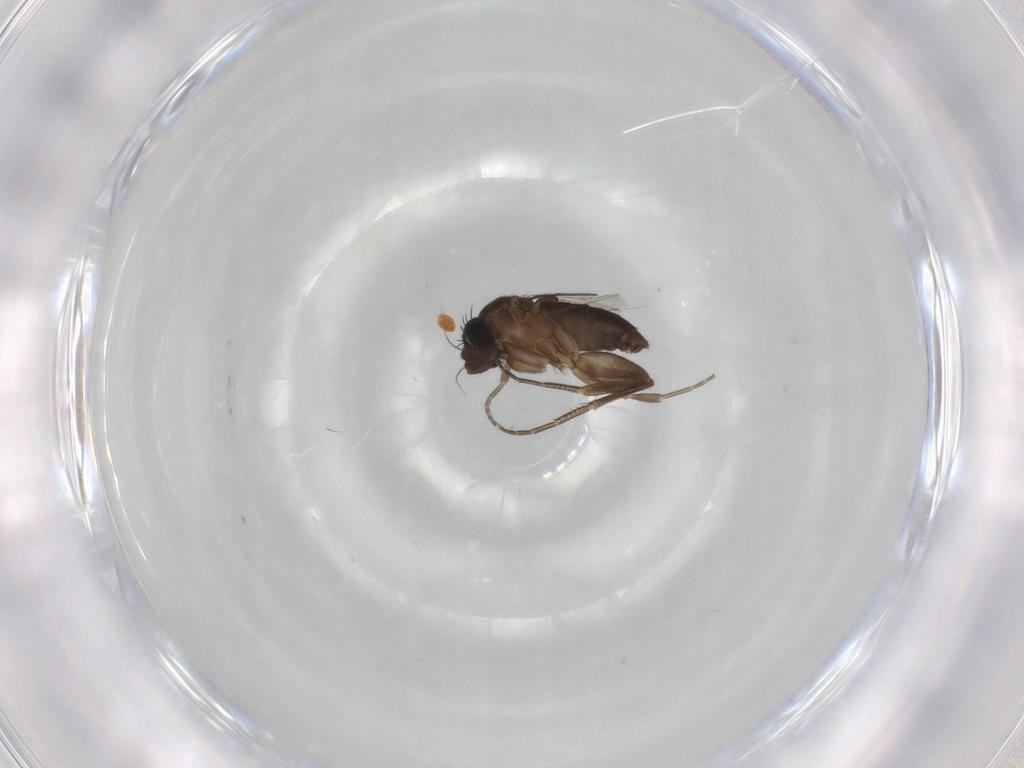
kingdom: Animalia
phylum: Arthropoda
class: Insecta
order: Diptera
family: Phoridae
